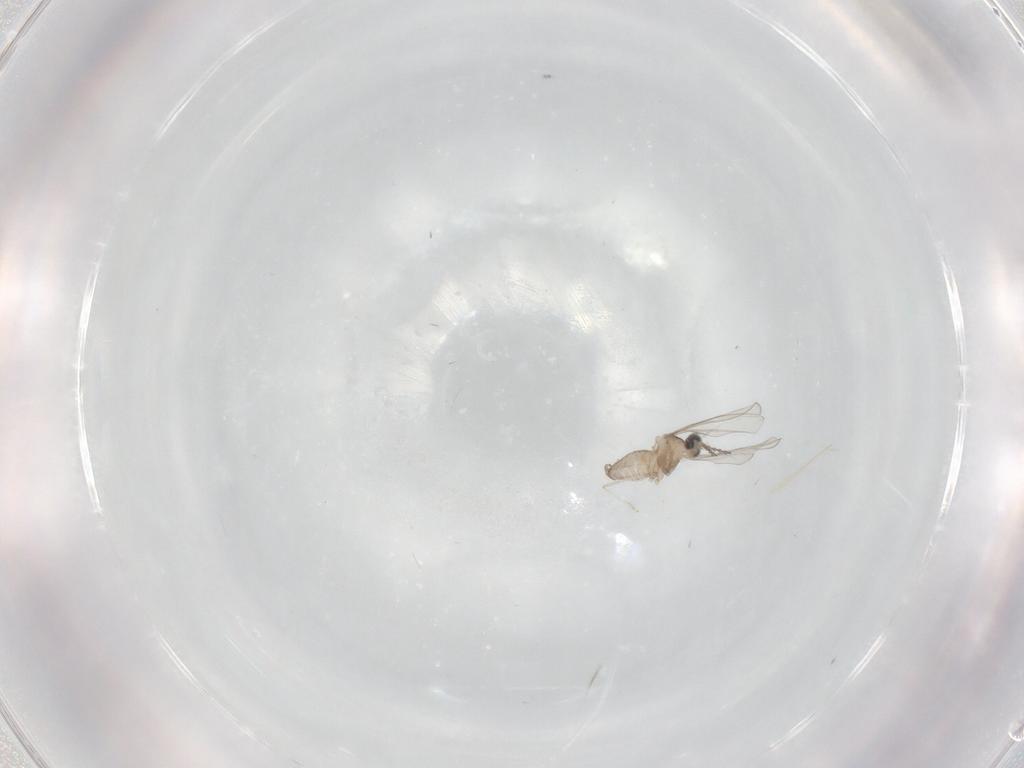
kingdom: Animalia
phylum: Arthropoda
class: Insecta
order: Diptera
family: Cecidomyiidae
